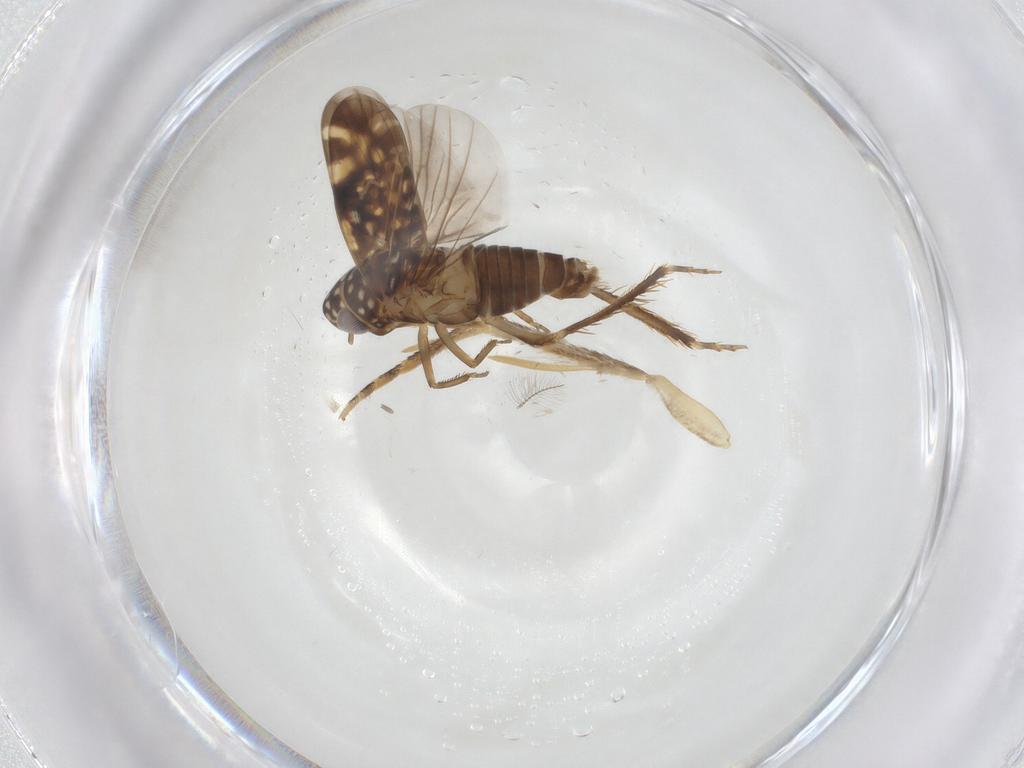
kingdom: Animalia
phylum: Arthropoda
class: Insecta
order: Hemiptera
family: Cicadellidae
